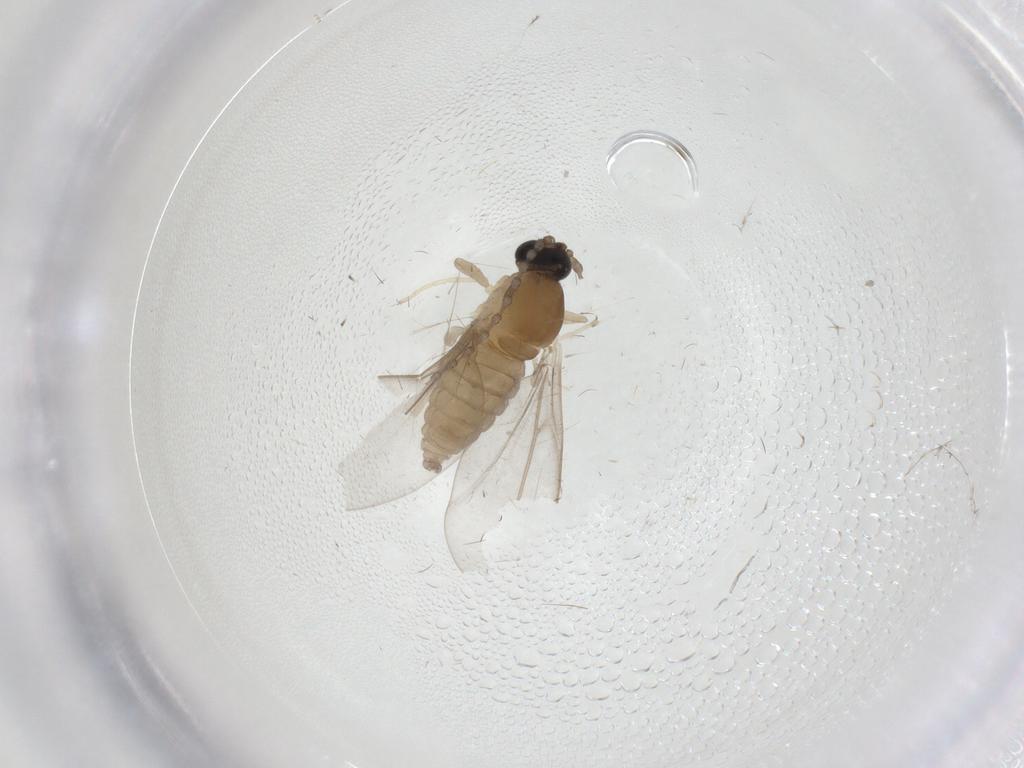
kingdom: Animalia
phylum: Arthropoda
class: Insecta
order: Diptera
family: Cecidomyiidae
